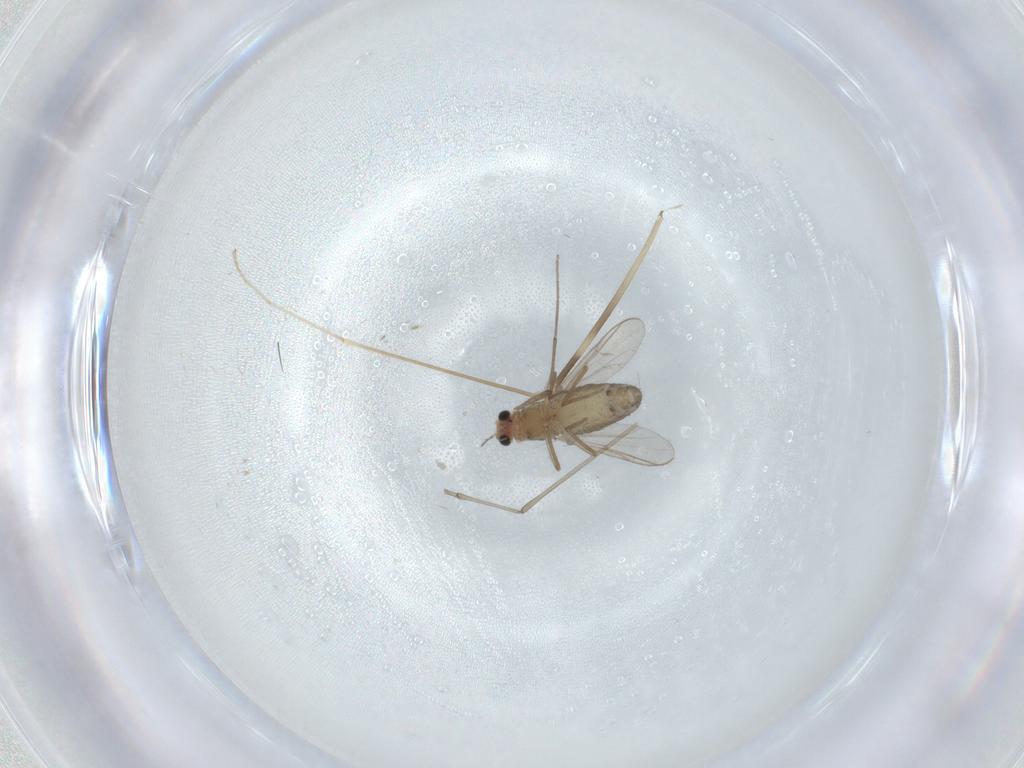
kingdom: Animalia
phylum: Arthropoda
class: Insecta
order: Diptera
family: Chironomidae
